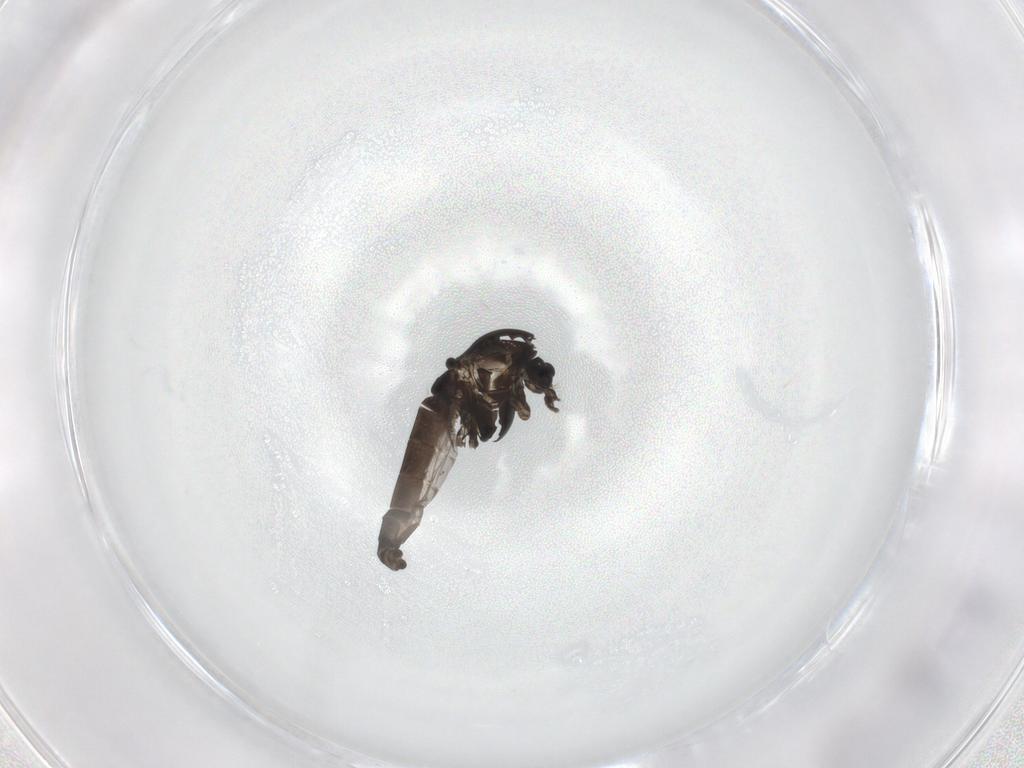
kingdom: Animalia
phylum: Arthropoda
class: Insecta
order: Diptera
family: Chironomidae
